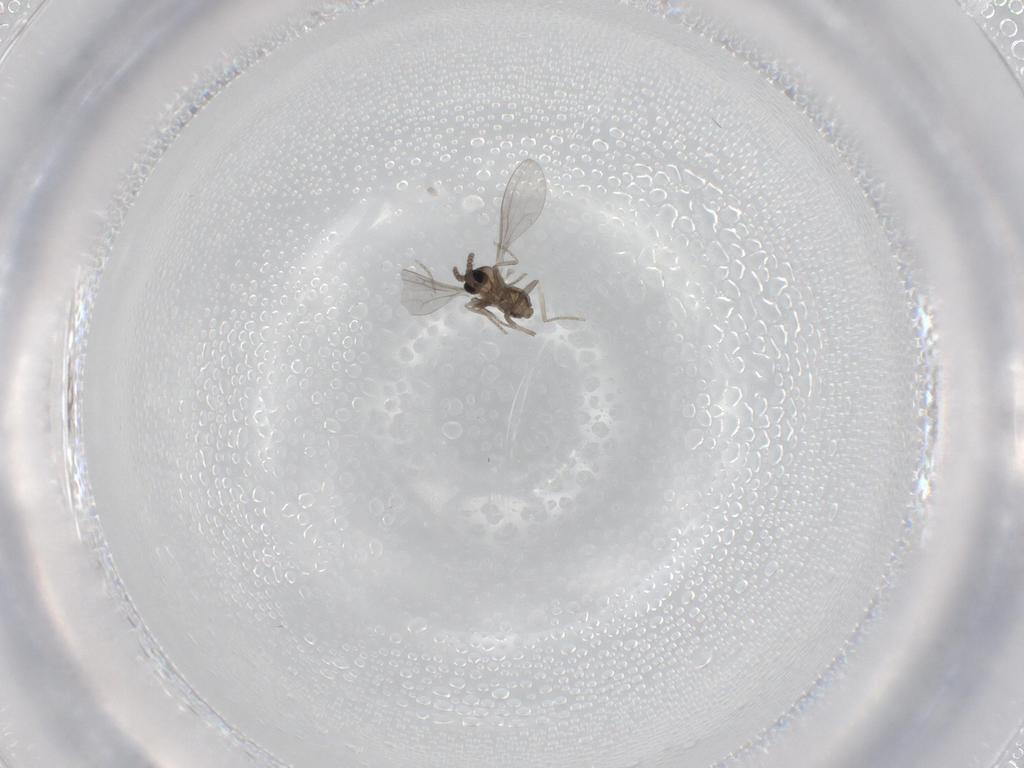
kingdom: Animalia
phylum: Arthropoda
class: Insecta
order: Diptera
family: Cecidomyiidae
